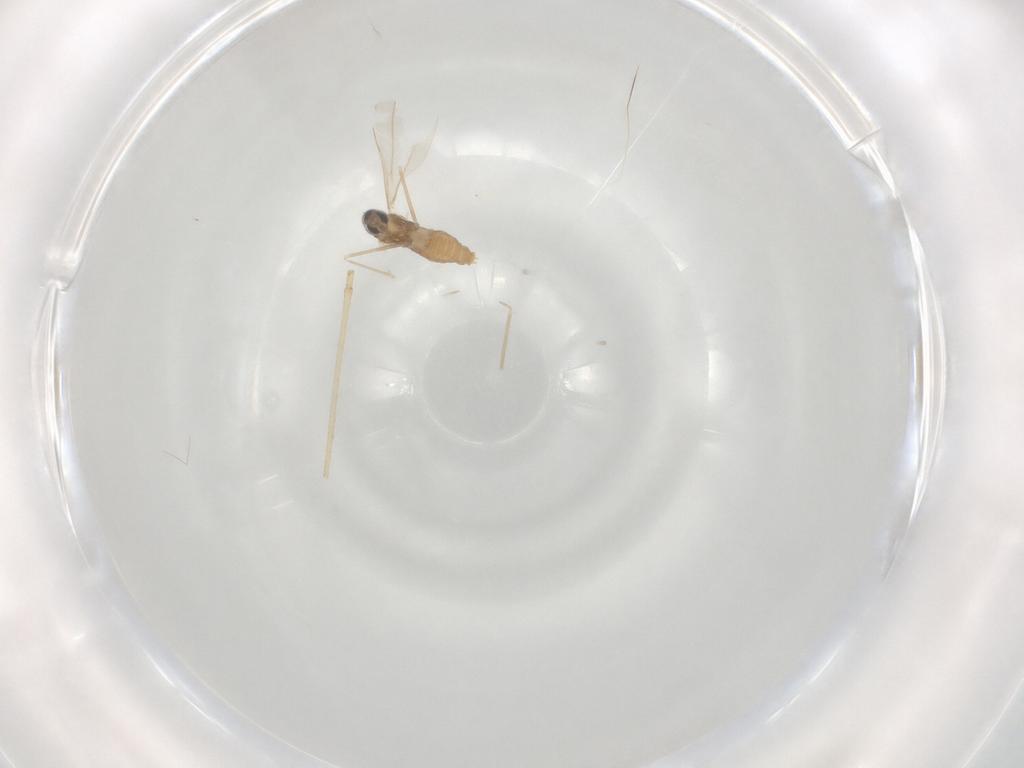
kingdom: Animalia
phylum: Arthropoda
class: Insecta
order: Diptera
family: Cecidomyiidae
